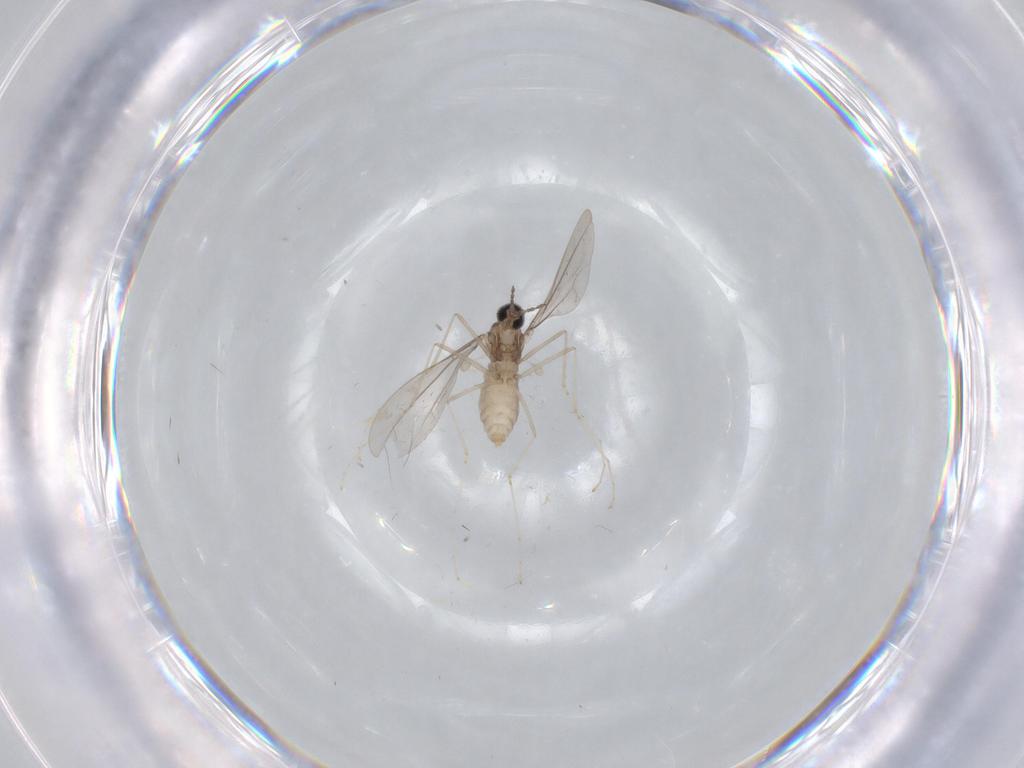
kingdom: Animalia
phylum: Arthropoda
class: Insecta
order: Diptera
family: Cecidomyiidae
